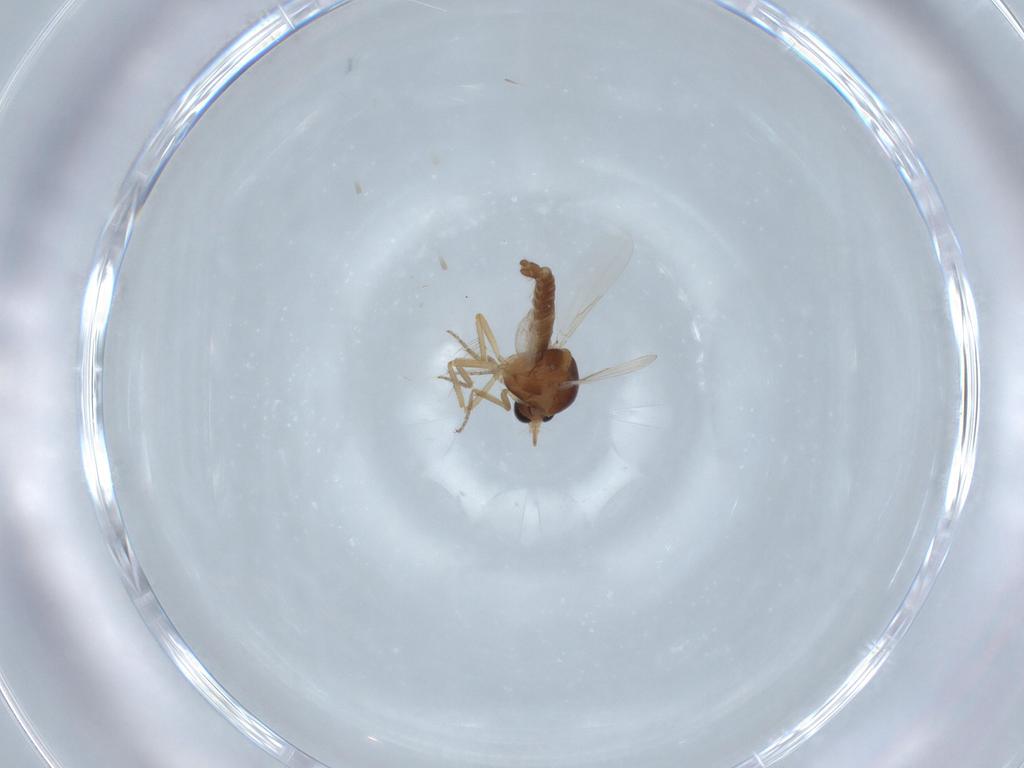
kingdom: Animalia
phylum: Arthropoda
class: Insecta
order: Diptera
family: Ceratopogonidae
